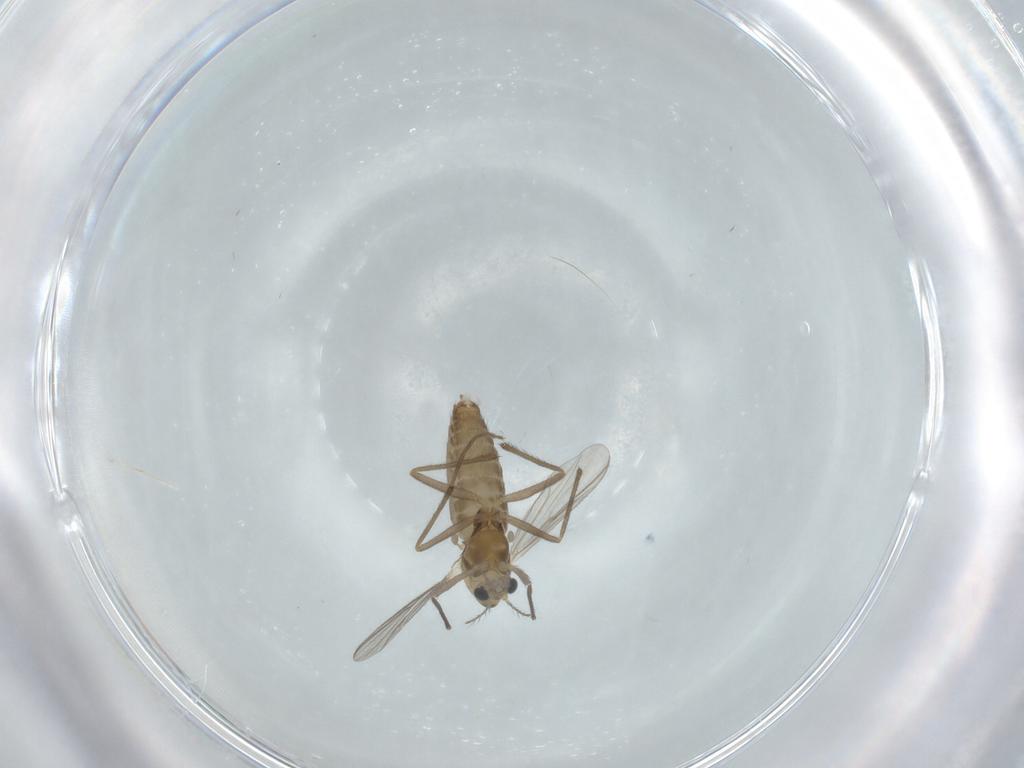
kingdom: Animalia
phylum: Arthropoda
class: Insecta
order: Diptera
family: Chironomidae
